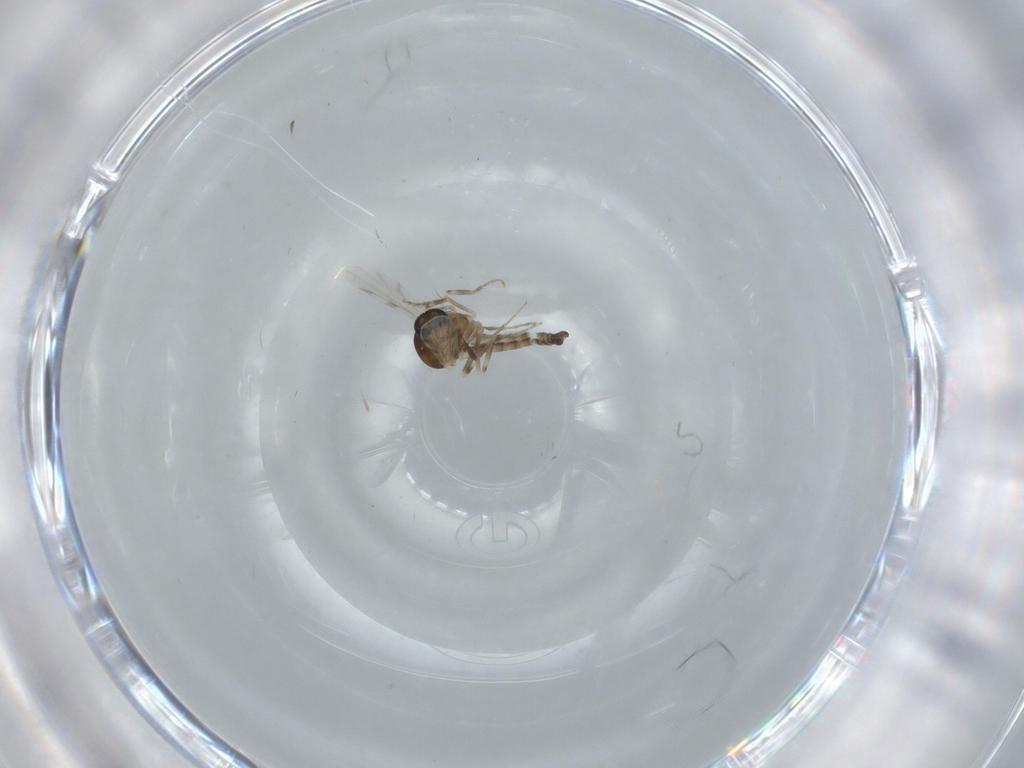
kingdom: Animalia
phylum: Arthropoda
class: Insecta
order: Diptera
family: Ceratopogonidae
